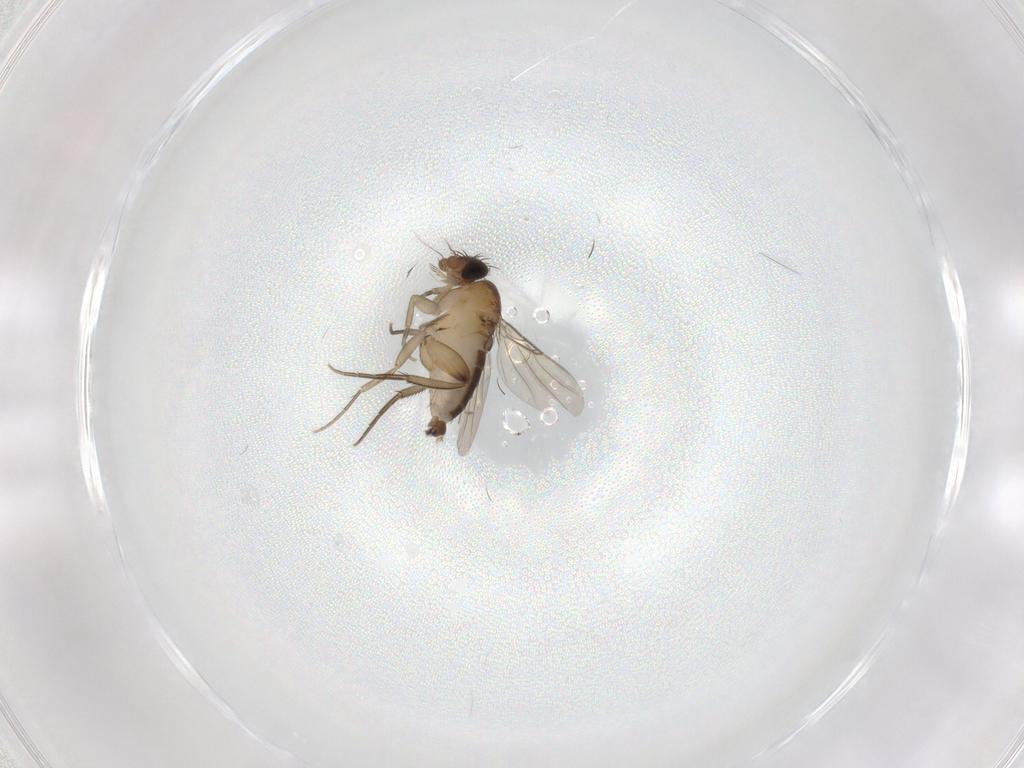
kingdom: Animalia
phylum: Arthropoda
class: Insecta
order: Diptera
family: Phoridae
